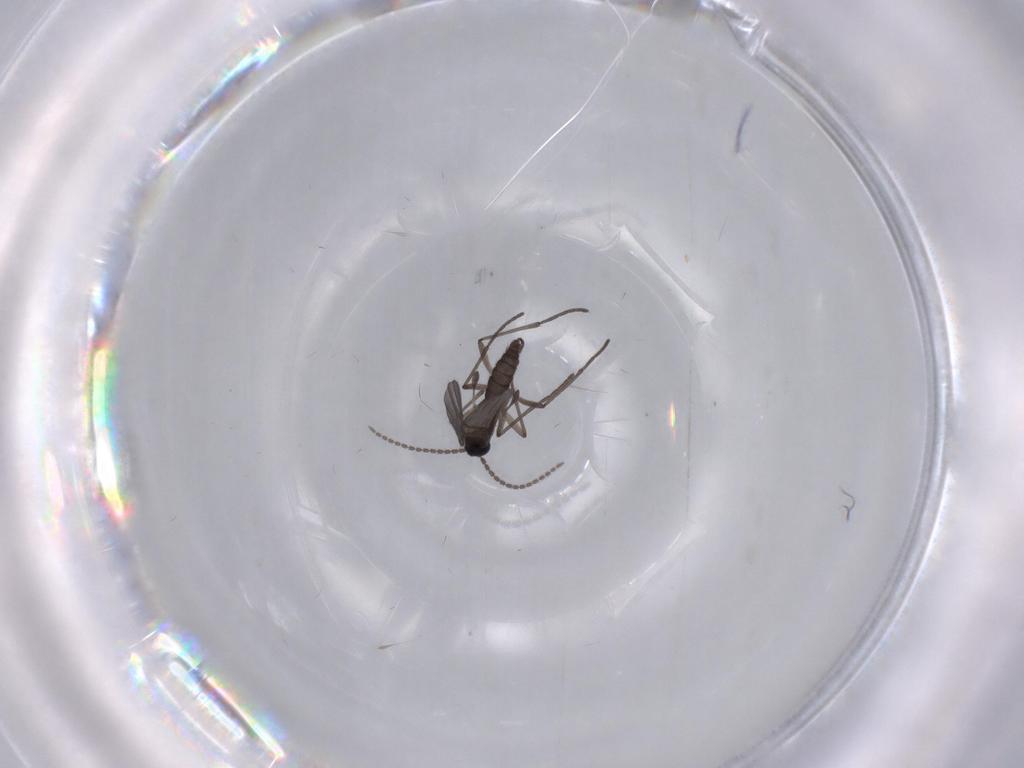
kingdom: Animalia
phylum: Arthropoda
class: Insecta
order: Diptera
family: Sciaridae
